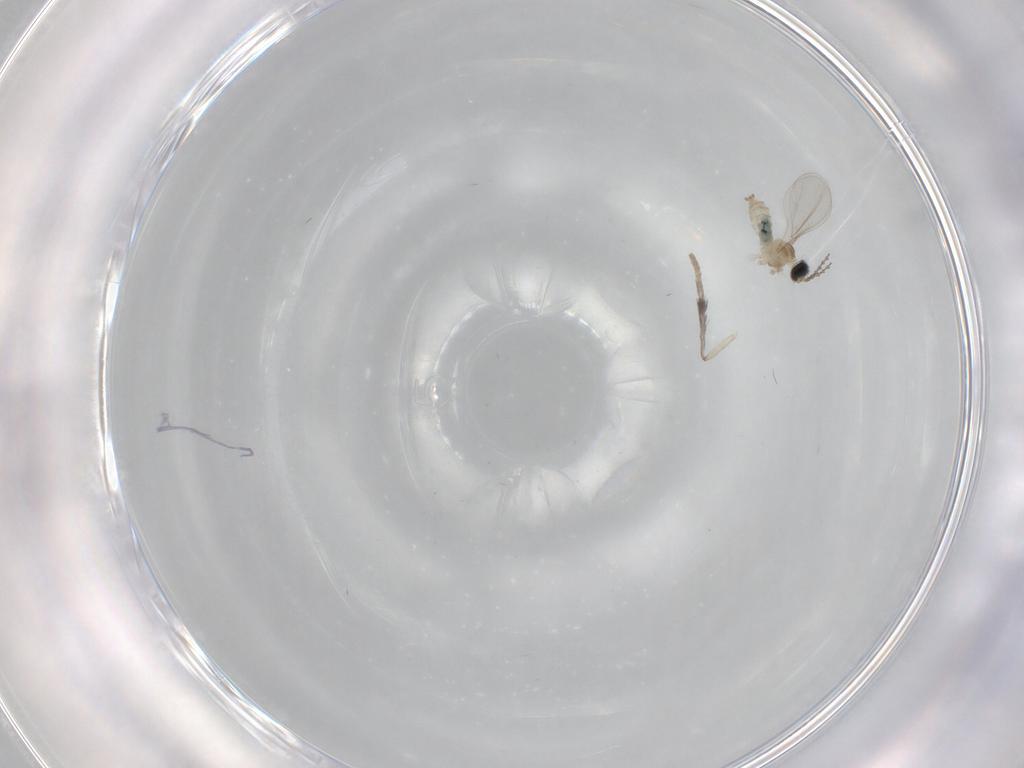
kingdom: Animalia
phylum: Arthropoda
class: Insecta
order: Diptera
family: Cecidomyiidae
